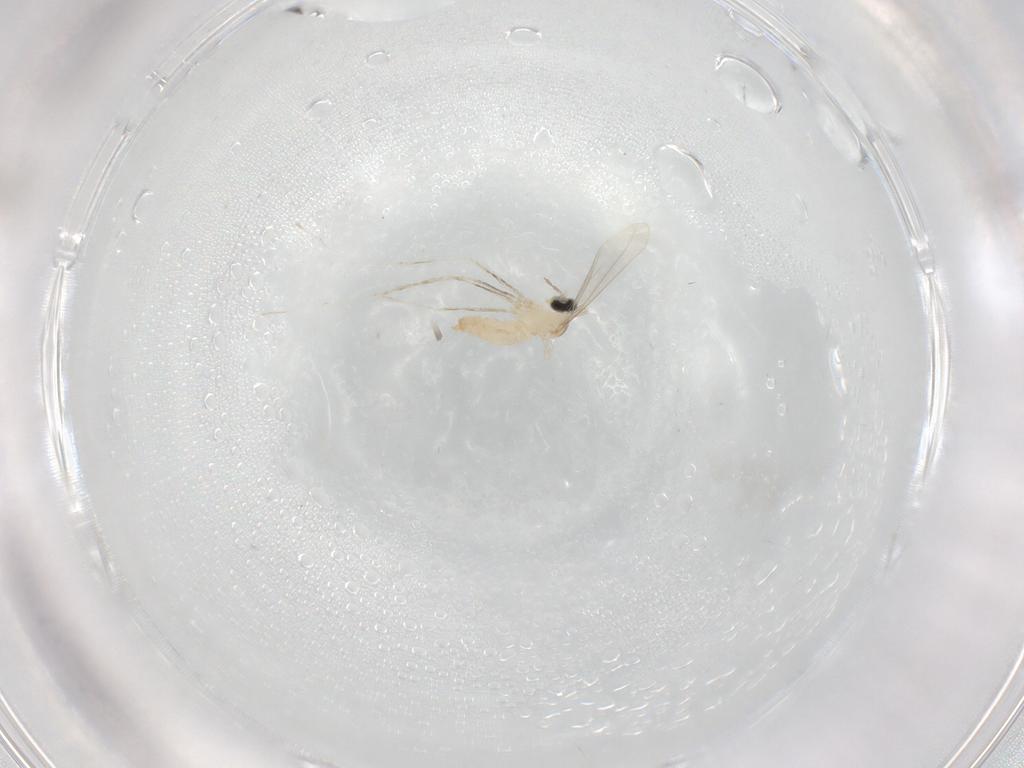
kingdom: Animalia
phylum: Arthropoda
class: Insecta
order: Diptera
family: Cecidomyiidae
